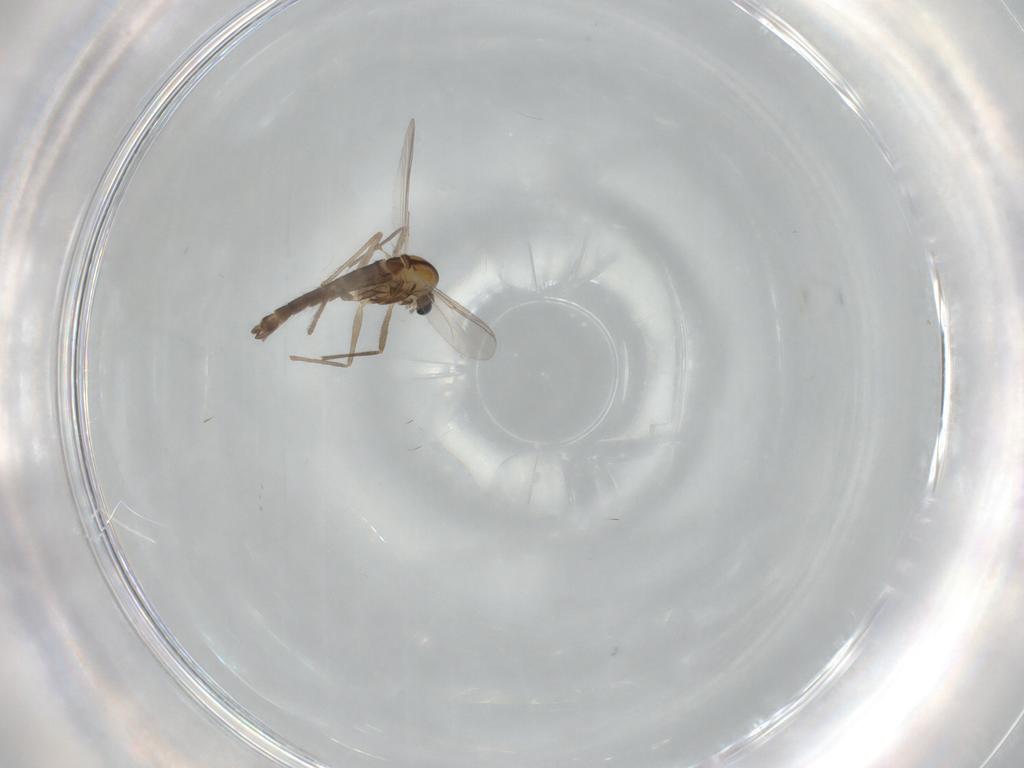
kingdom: Animalia
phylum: Arthropoda
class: Insecta
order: Diptera
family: Chironomidae
